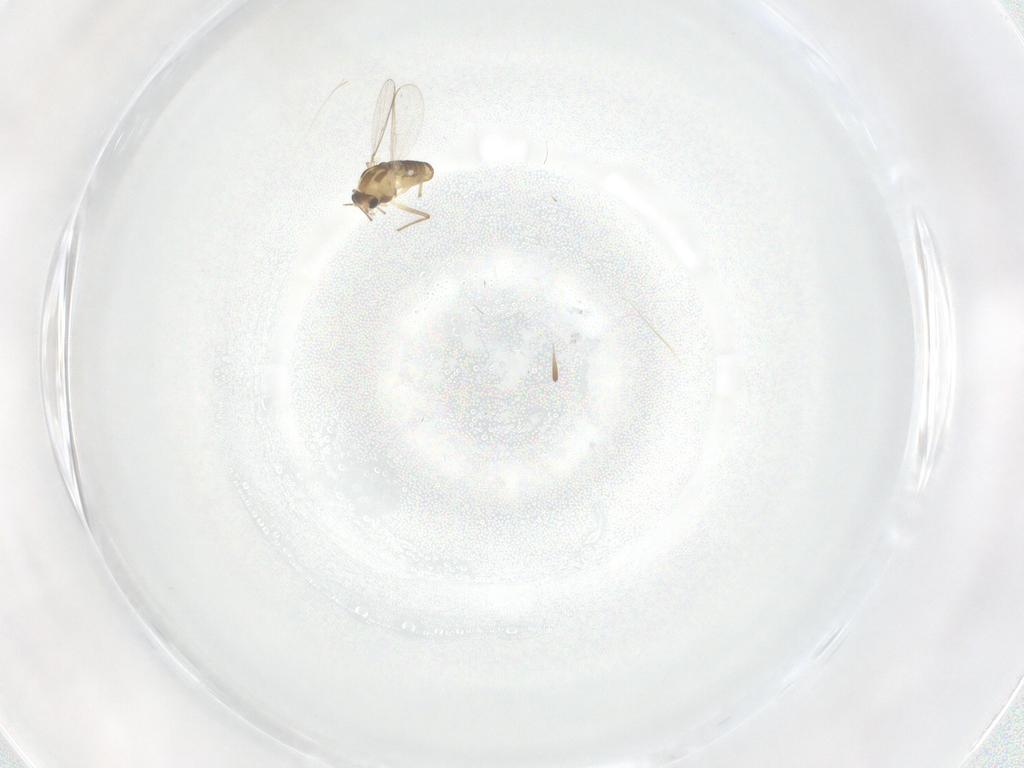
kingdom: Animalia
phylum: Arthropoda
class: Insecta
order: Diptera
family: Chironomidae
